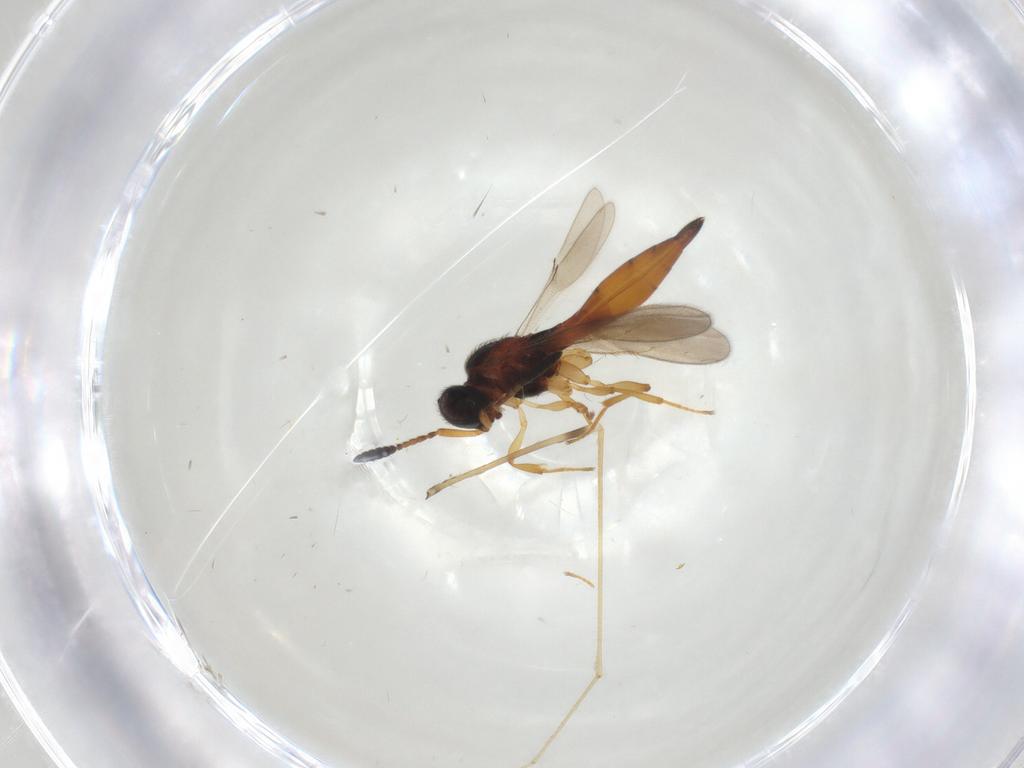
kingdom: Animalia
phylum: Arthropoda
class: Insecta
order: Hymenoptera
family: Scelionidae
